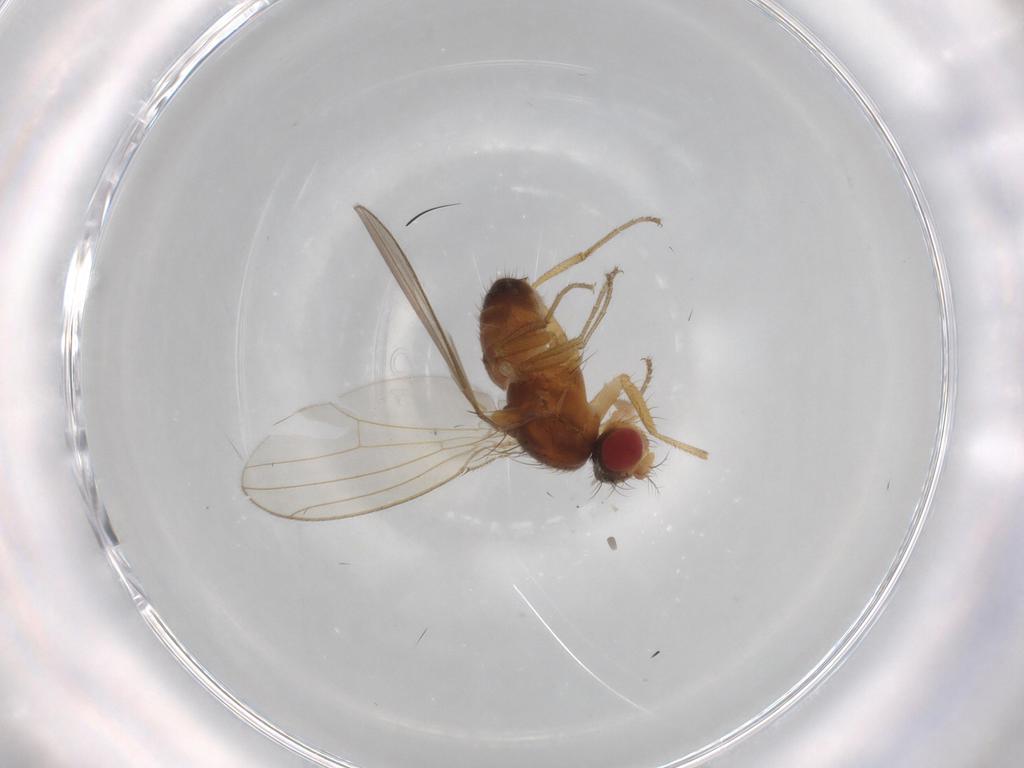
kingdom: Animalia
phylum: Arthropoda
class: Insecta
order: Diptera
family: Drosophilidae
